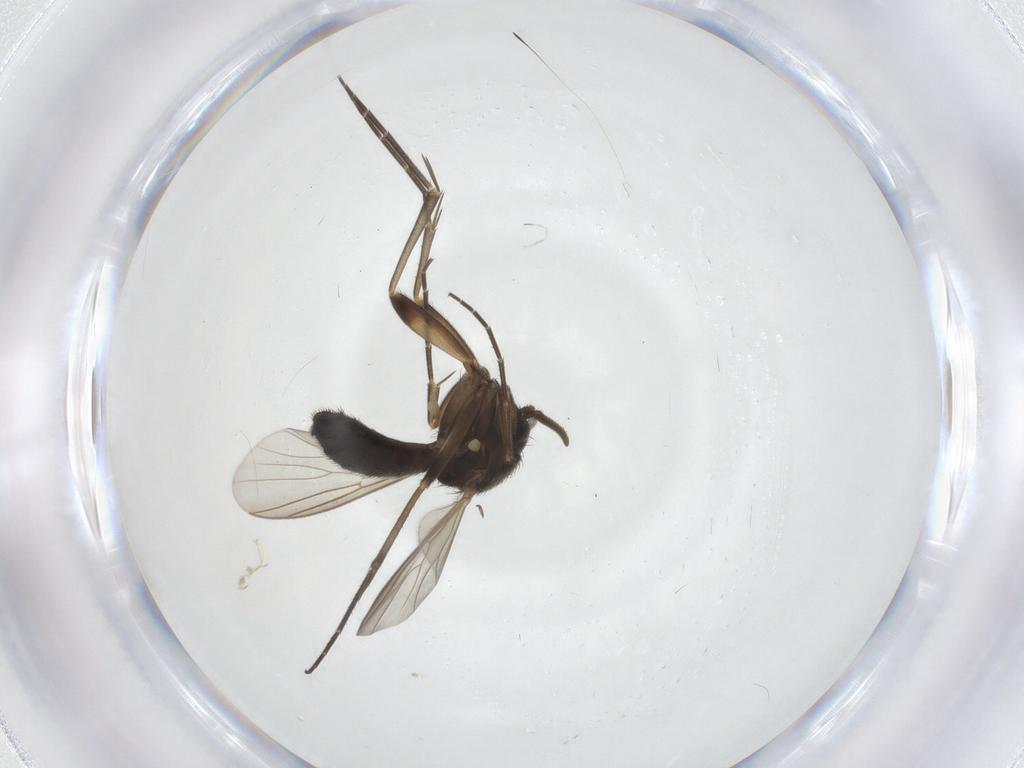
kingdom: Animalia
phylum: Arthropoda
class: Insecta
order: Diptera
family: Mycetophilidae
